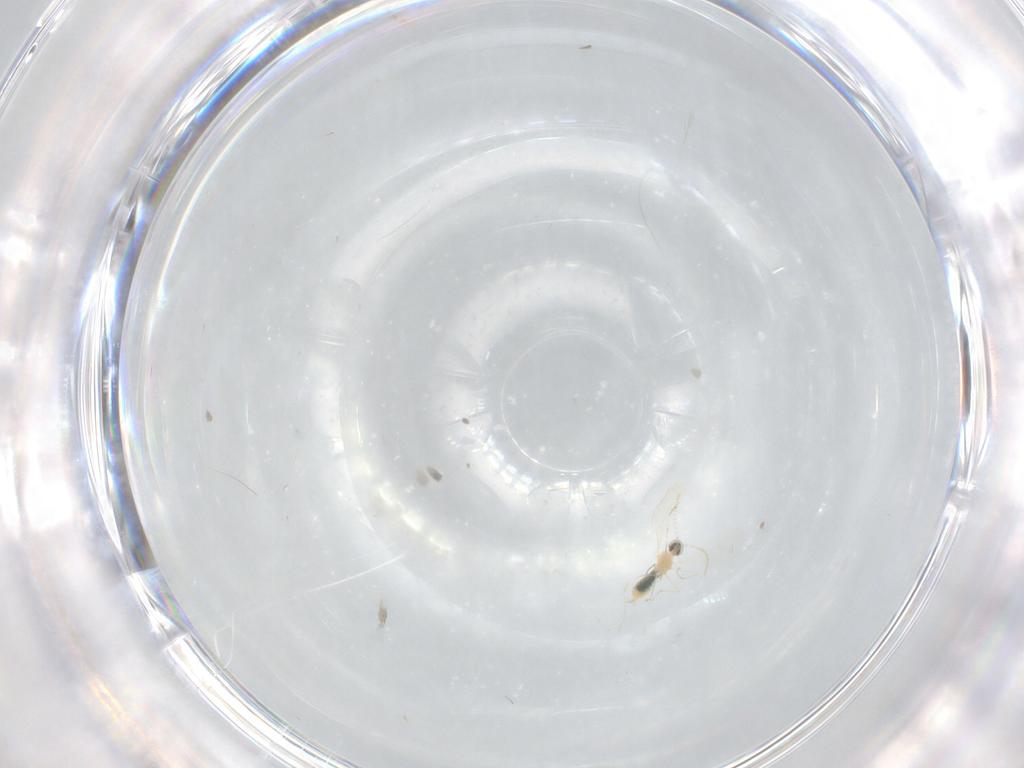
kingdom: Animalia
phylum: Arthropoda
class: Insecta
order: Diptera
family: Cecidomyiidae
